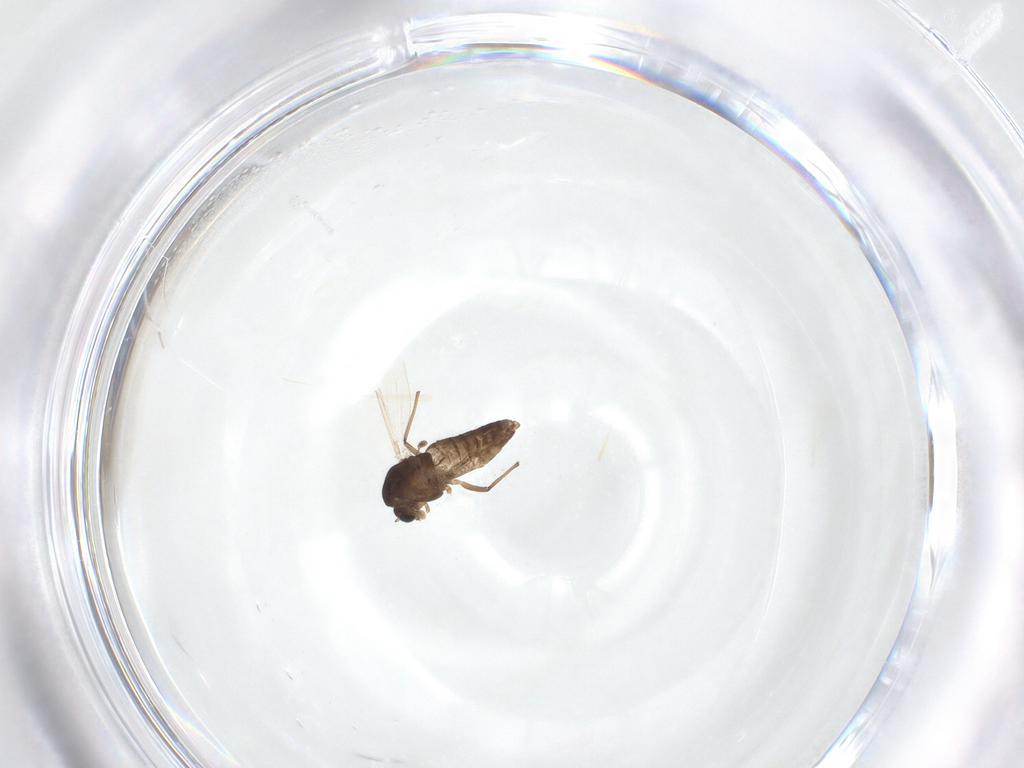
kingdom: Animalia
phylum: Arthropoda
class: Insecta
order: Diptera
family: Chironomidae
